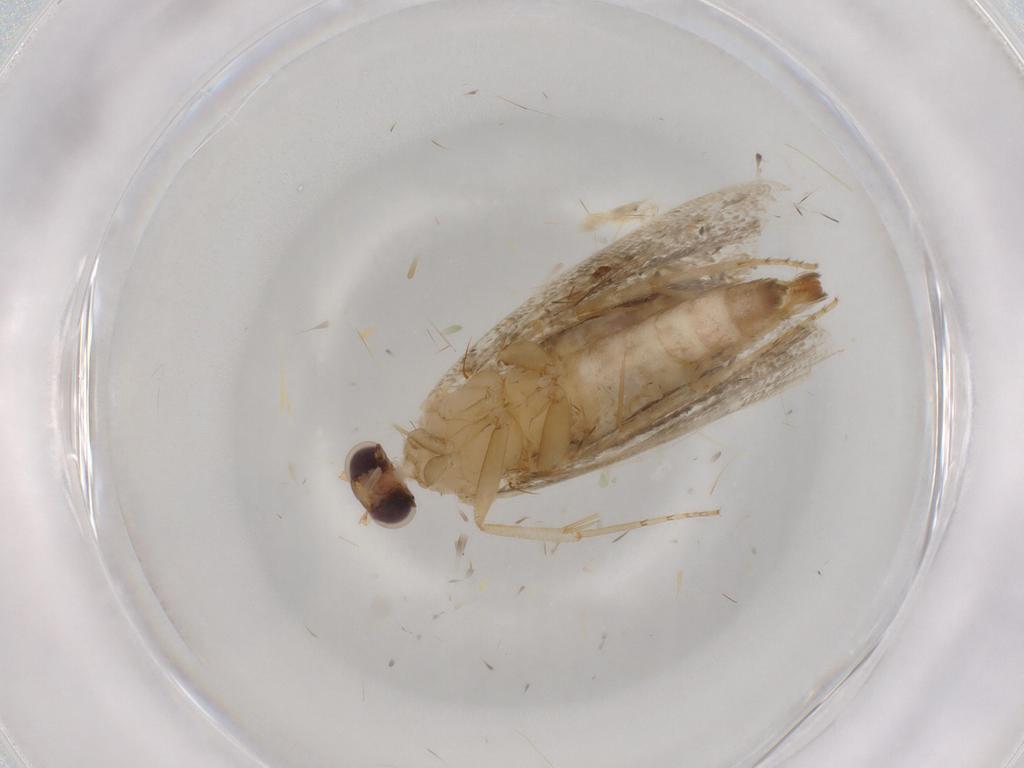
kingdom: Animalia
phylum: Arthropoda
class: Insecta
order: Lepidoptera
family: Tortricidae
